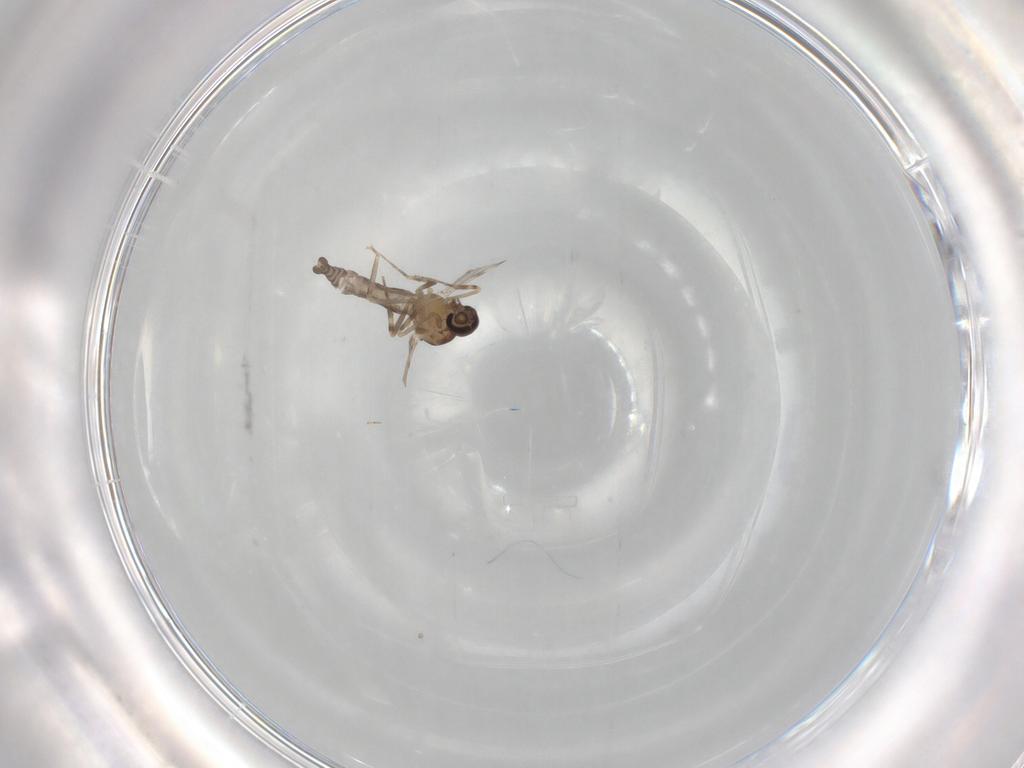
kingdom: Animalia
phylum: Arthropoda
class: Insecta
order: Diptera
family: Ceratopogonidae
